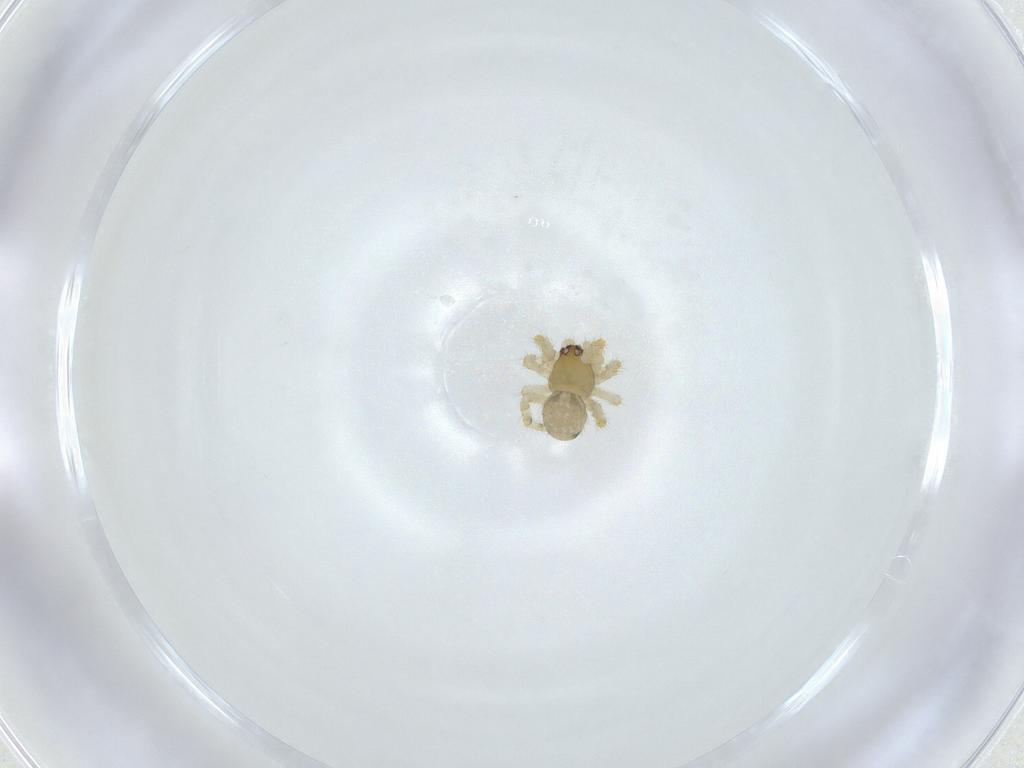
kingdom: Animalia
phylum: Arthropoda
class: Arachnida
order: Araneae
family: Theridiidae
